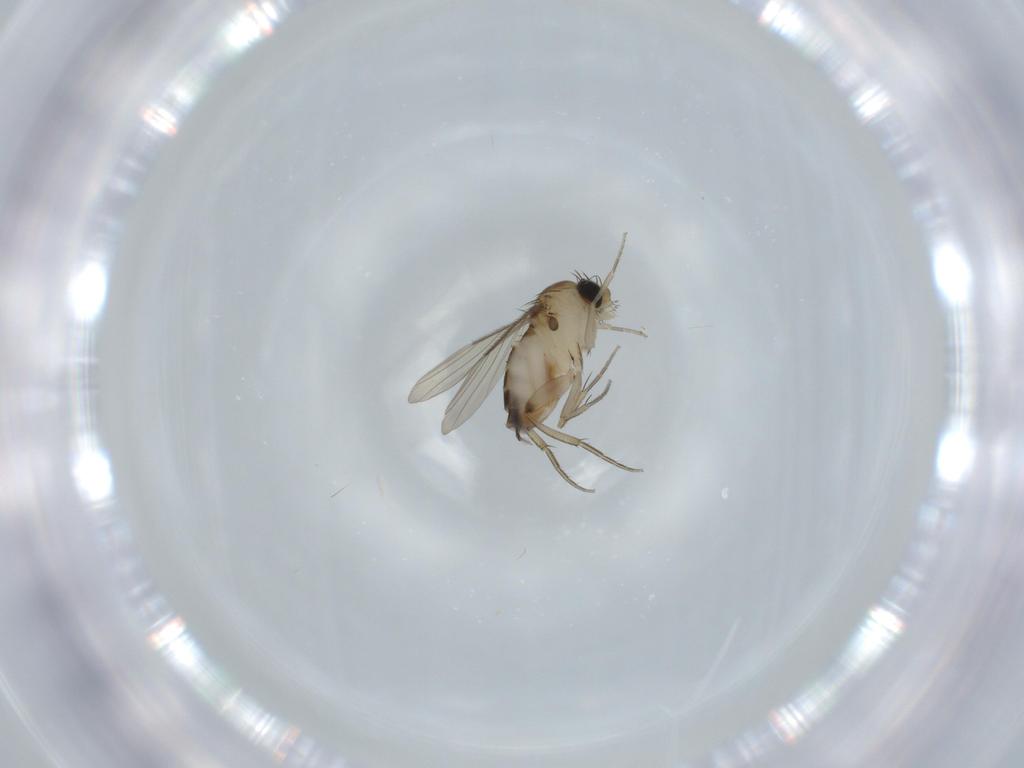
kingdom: Animalia
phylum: Arthropoda
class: Insecta
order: Diptera
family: Phoridae
